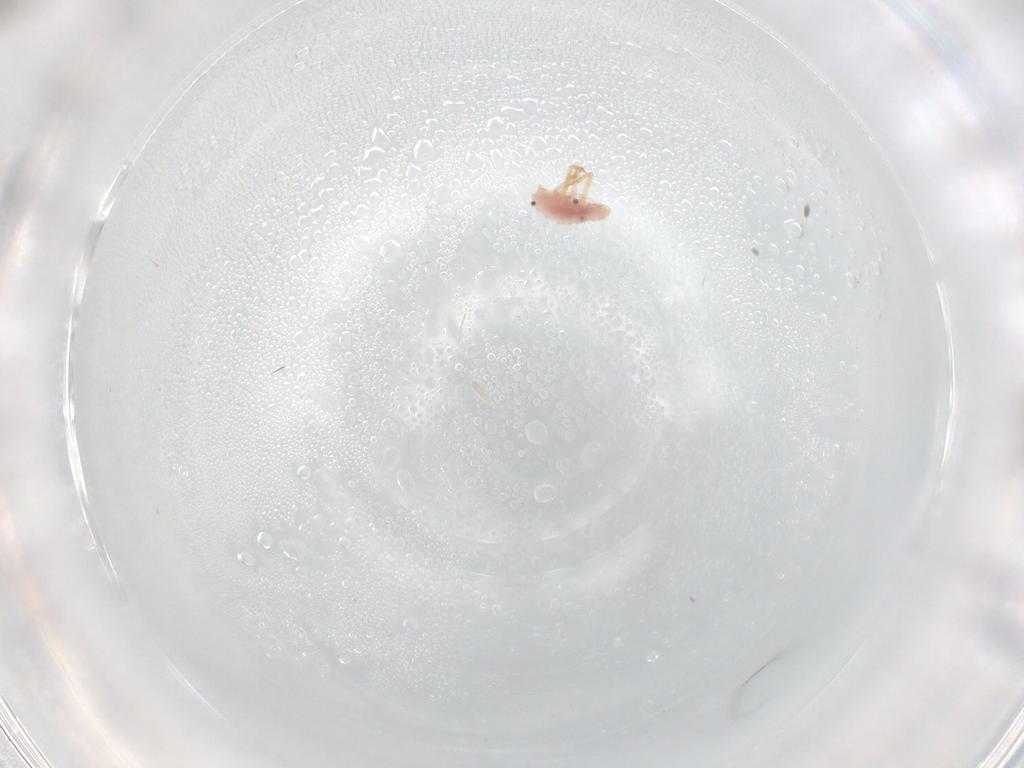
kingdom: Animalia
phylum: Arthropoda
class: Insecta
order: Hemiptera
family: Coccoidea_incertae_sedis
